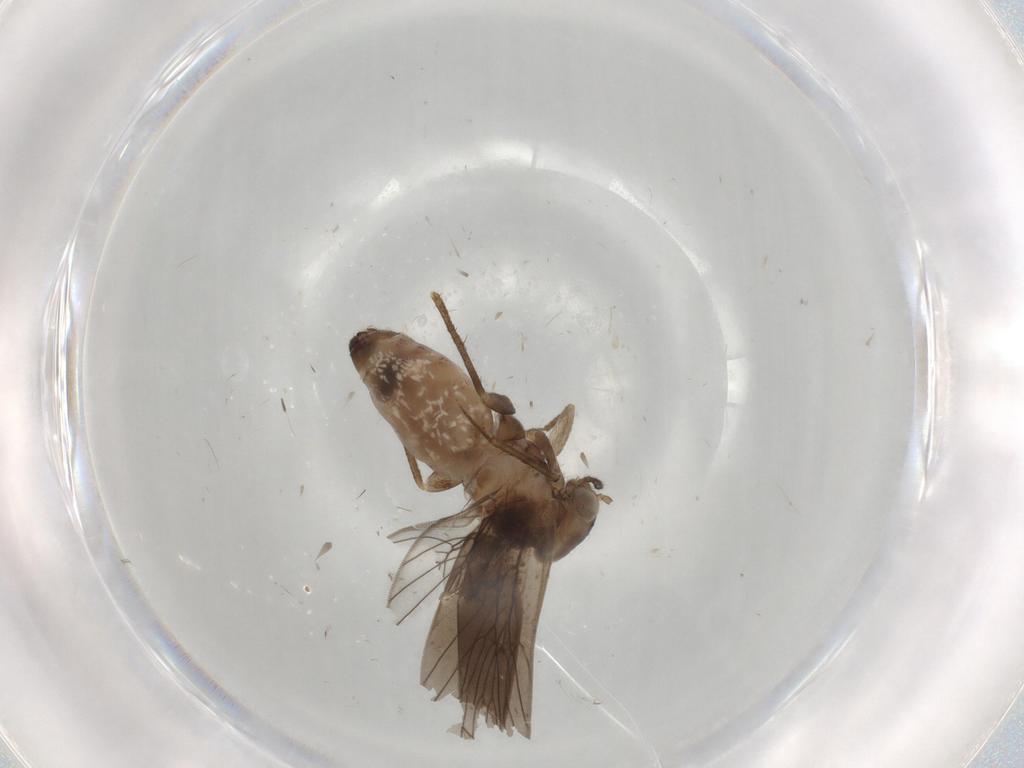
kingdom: Animalia
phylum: Arthropoda
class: Insecta
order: Psocodea
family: Lepidopsocidae
